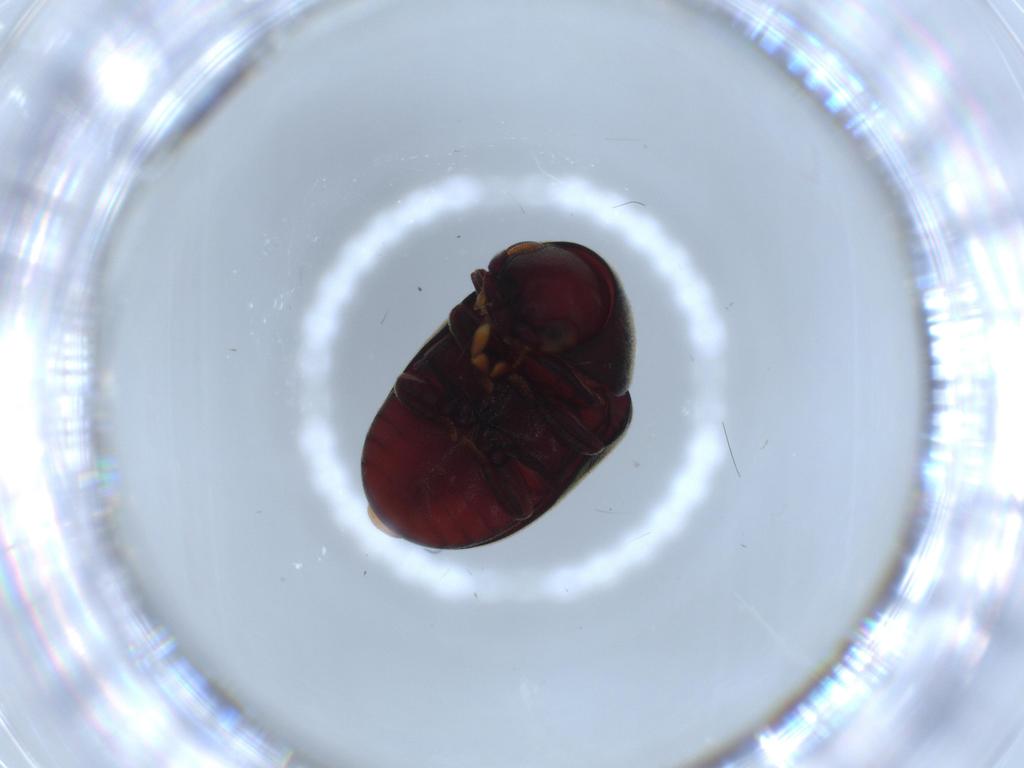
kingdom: Animalia
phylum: Arthropoda
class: Insecta
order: Coleoptera
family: Ptinidae
